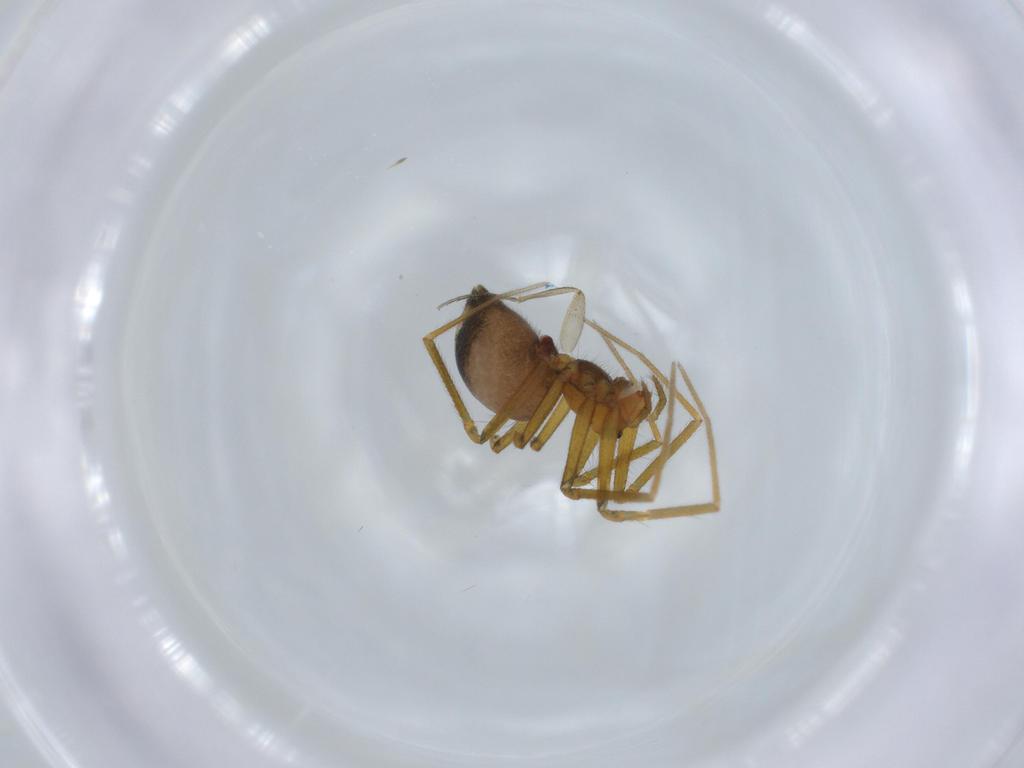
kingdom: Animalia
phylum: Arthropoda
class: Arachnida
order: Araneae
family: Linyphiidae
